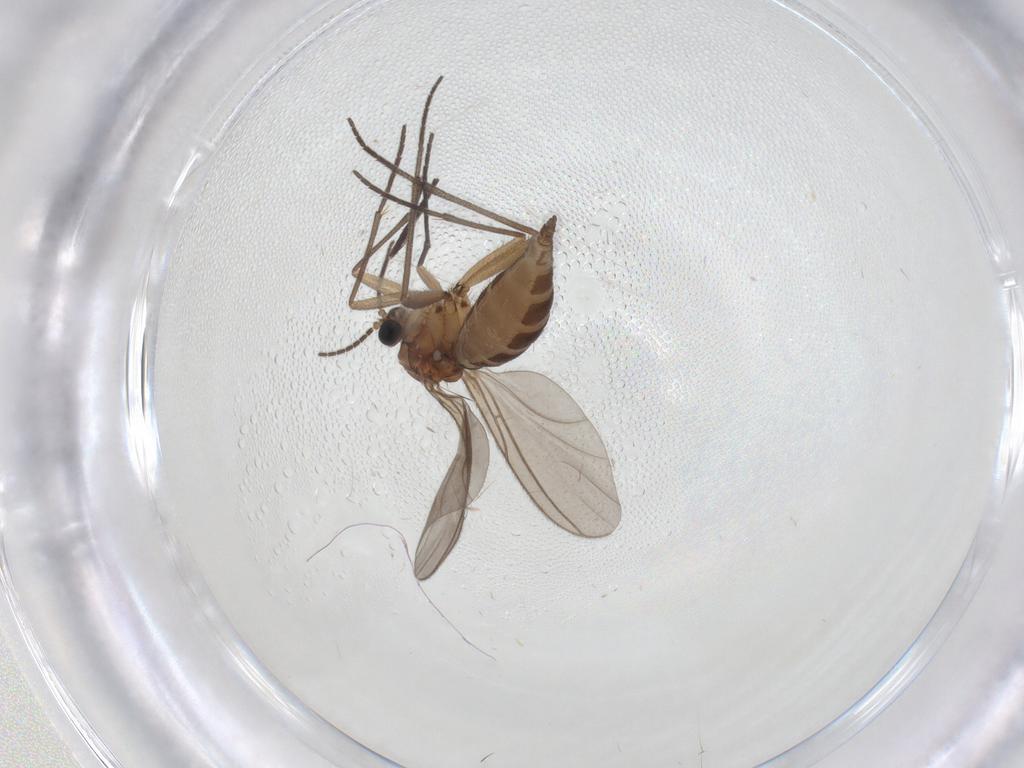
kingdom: Animalia
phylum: Arthropoda
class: Insecta
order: Diptera
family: Sciaridae
